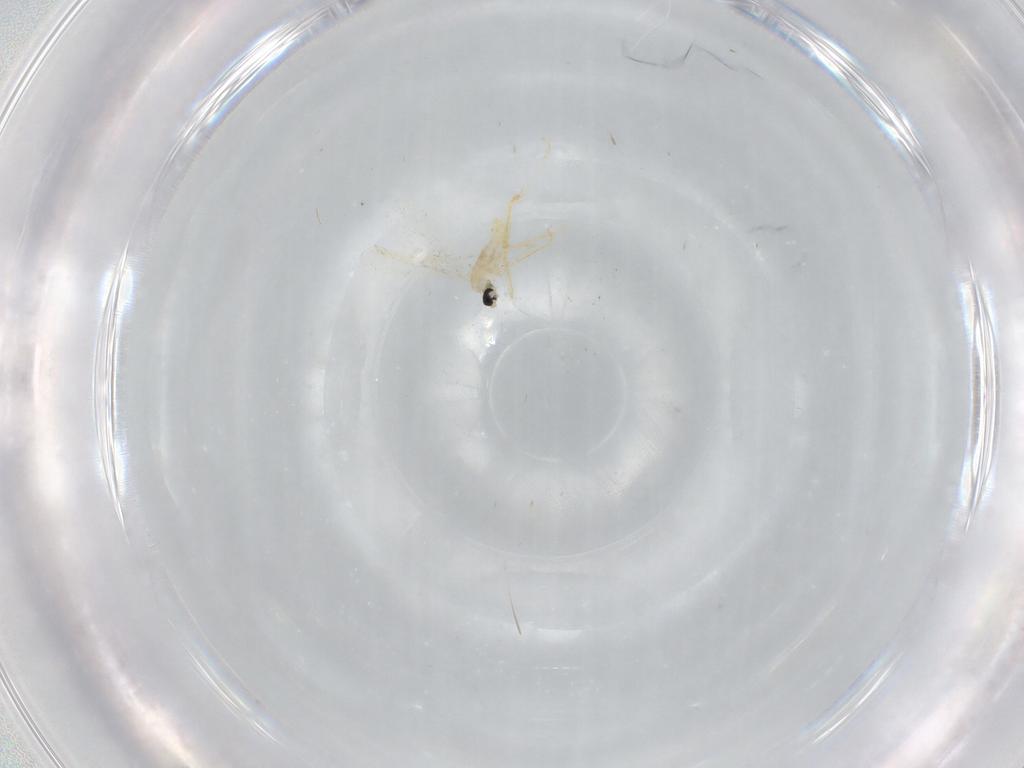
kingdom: Animalia
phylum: Arthropoda
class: Insecta
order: Diptera
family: Cecidomyiidae
